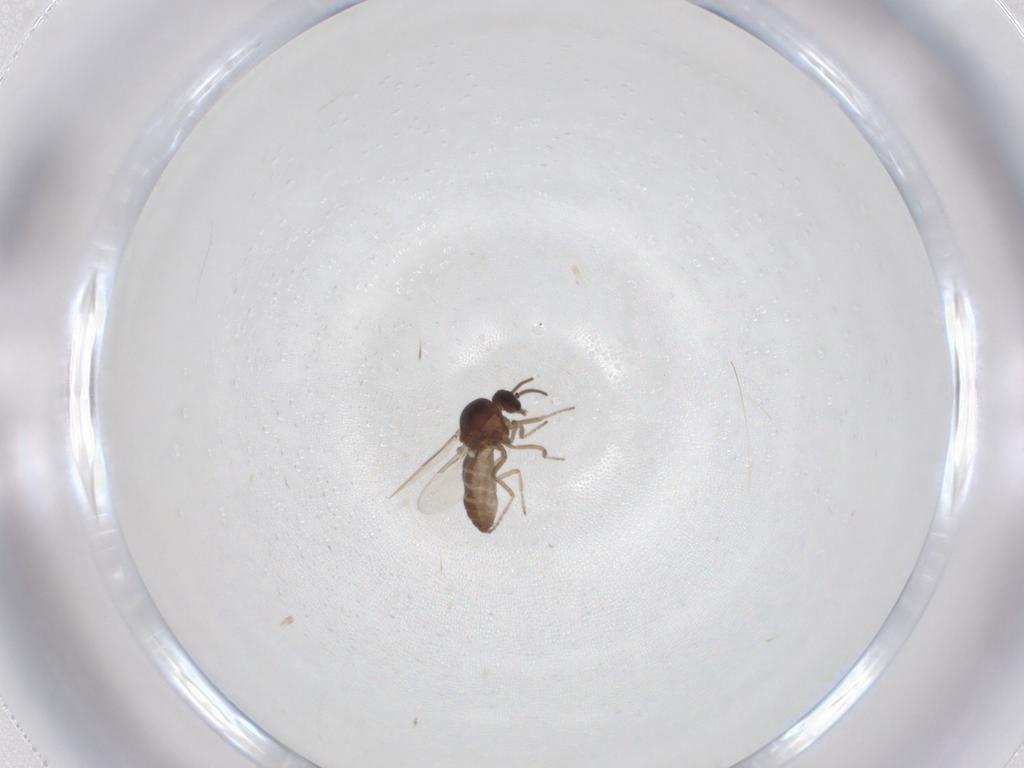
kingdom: Animalia
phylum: Arthropoda
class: Insecta
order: Diptera
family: Ceratopogonidae
